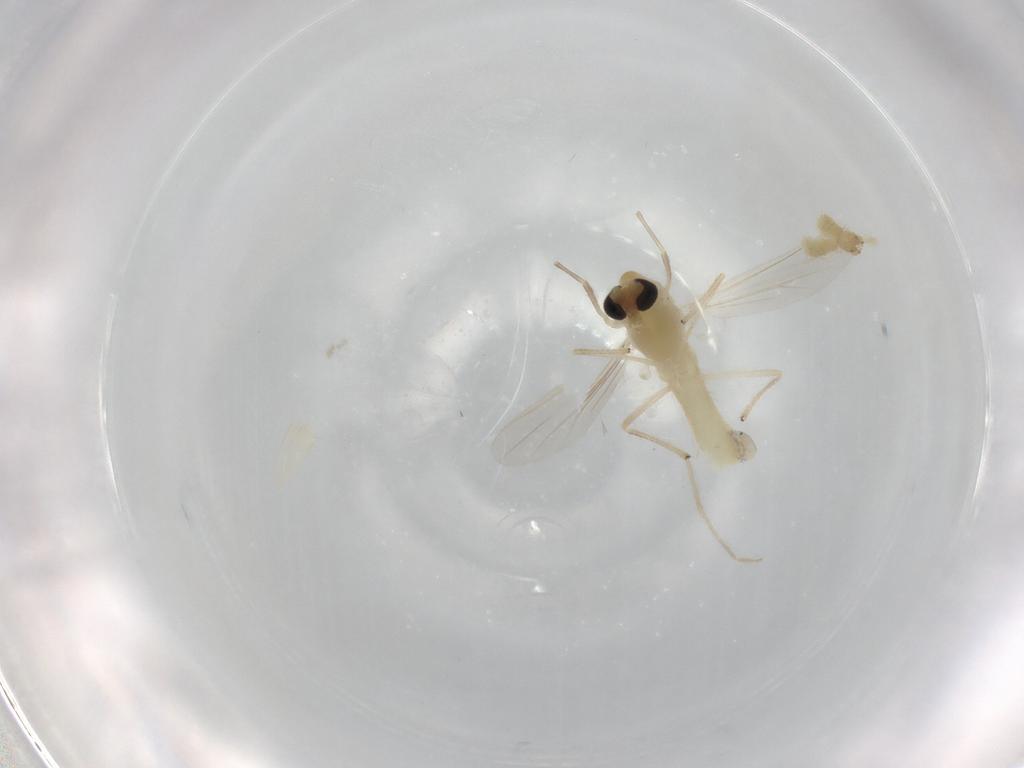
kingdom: Animalia
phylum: Arthropoda
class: Insecta
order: Diptera
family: Chironomidae
